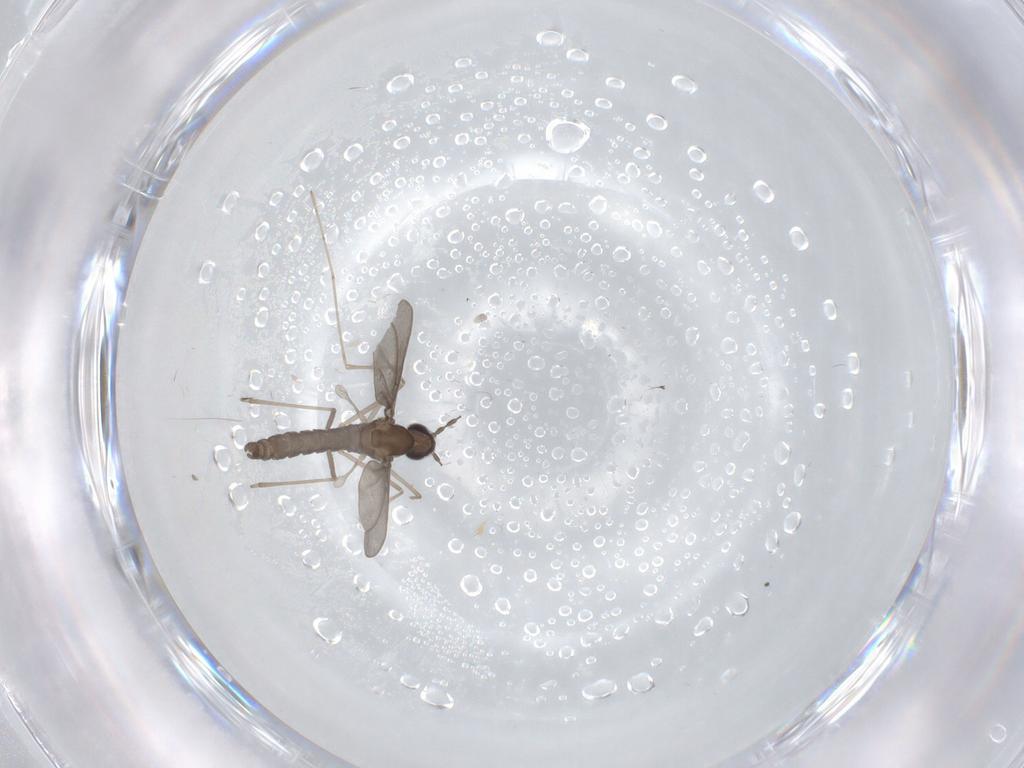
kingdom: Animalia
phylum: Arthropoda
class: Insecta
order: Diptera
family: Cecidomyiidae
